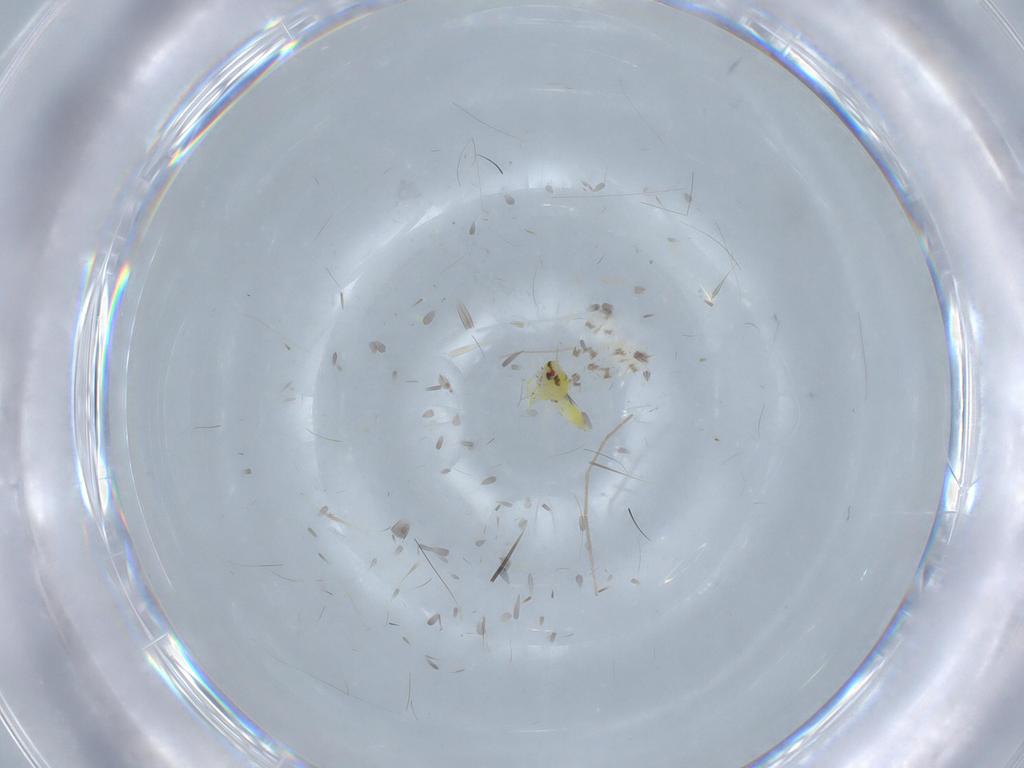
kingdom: Animalia
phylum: Arthropoda
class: Insecta
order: Hemiptera
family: Aleyrodidae
